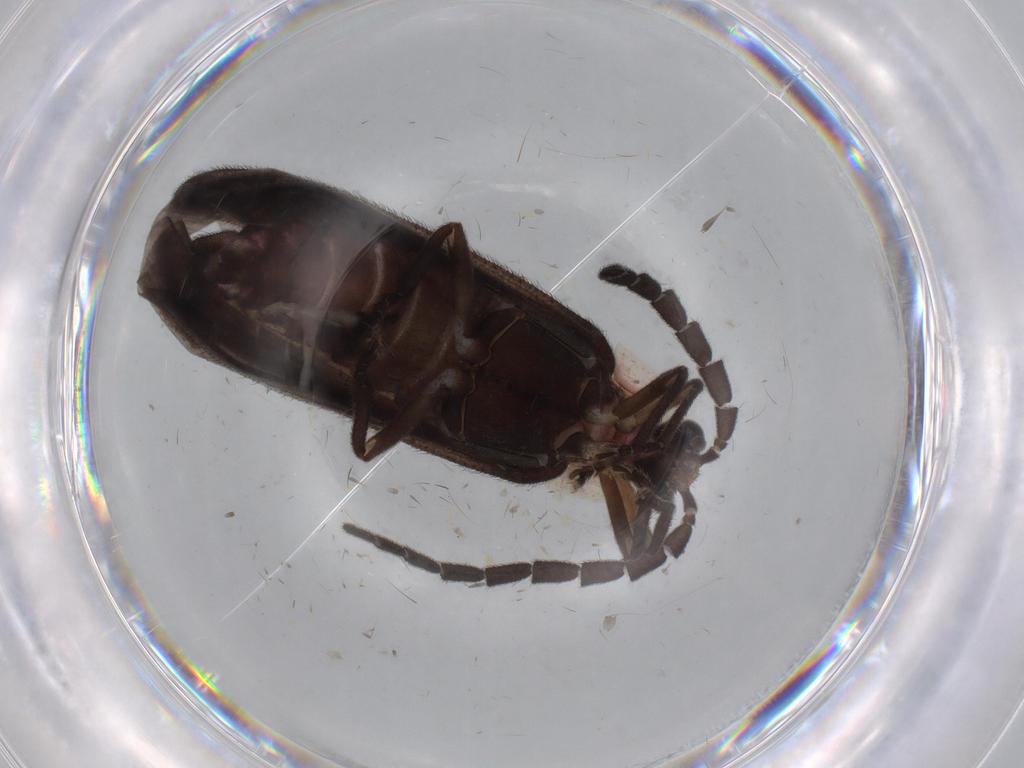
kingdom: Animalia
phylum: Arthropoda
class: Insecta
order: Coleoptera
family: Lampyridae
